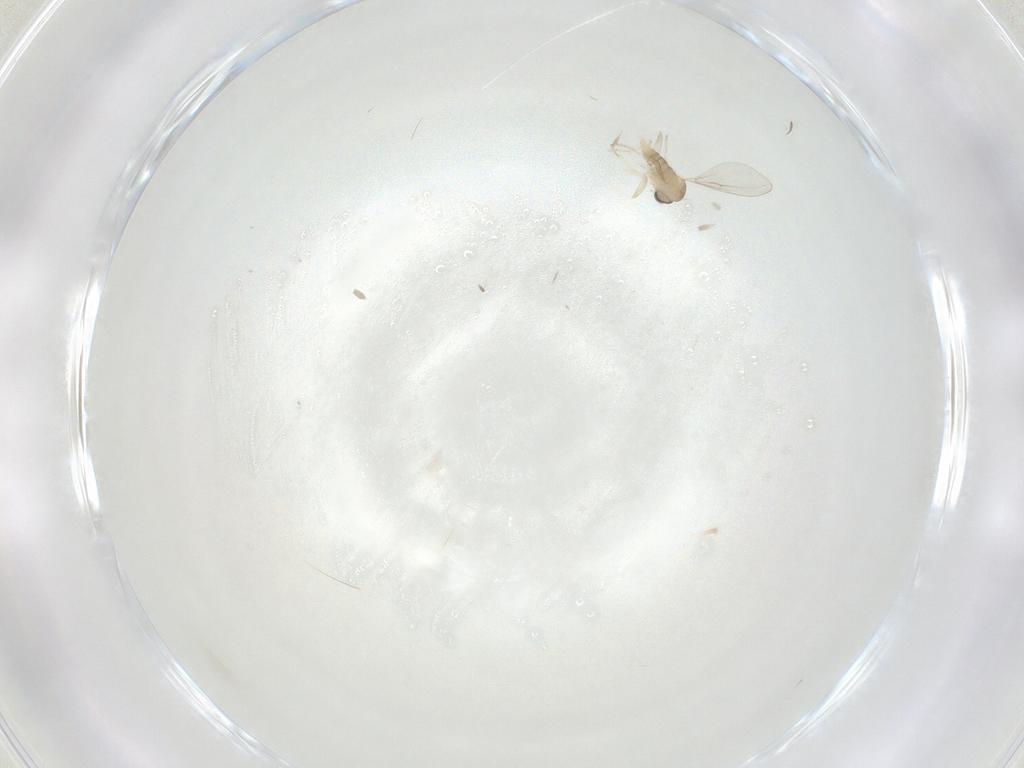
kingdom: Animalia
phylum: Arthropoda
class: Insecta
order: Diptera
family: Cecidomyiidae
